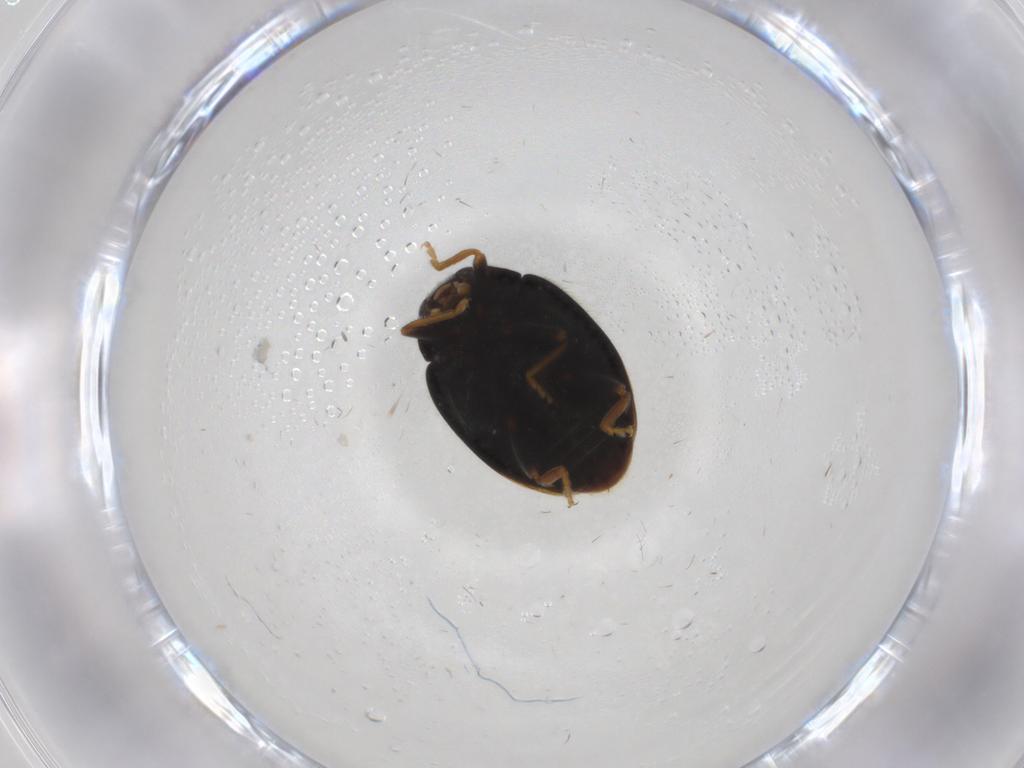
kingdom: Animalia
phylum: Arthropoda
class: Insecta
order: Coleoptera
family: Coccinellidae
